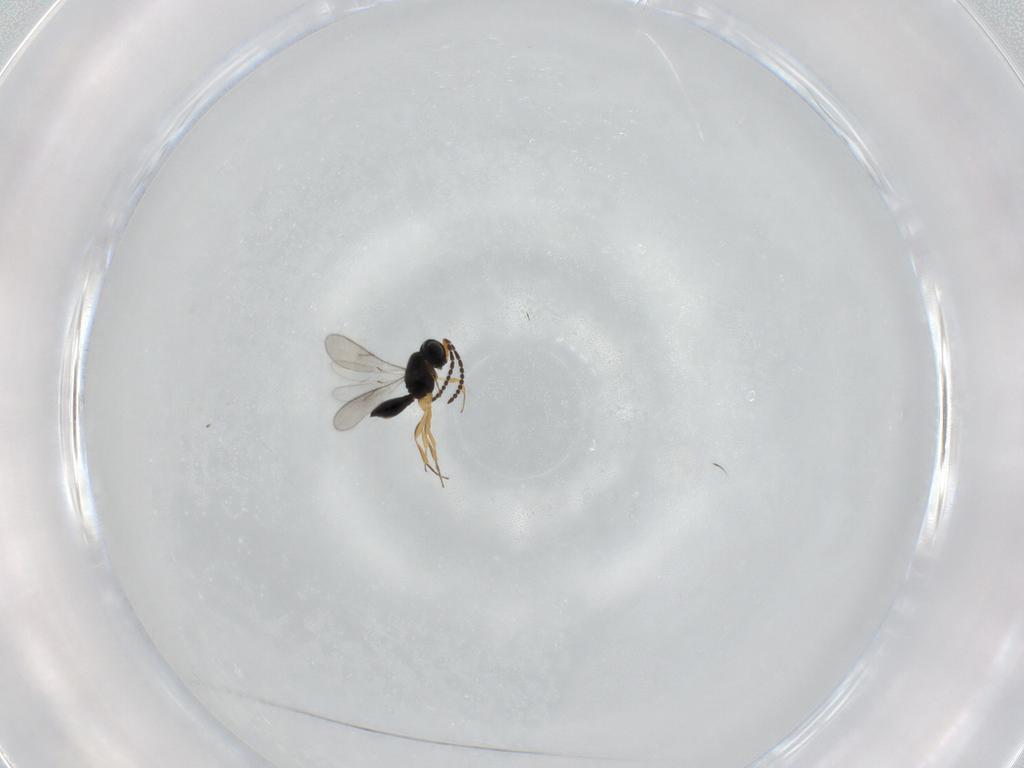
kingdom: Animalia
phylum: Arthropoda
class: Insecta
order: Hymenoptera
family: Scelionidae
